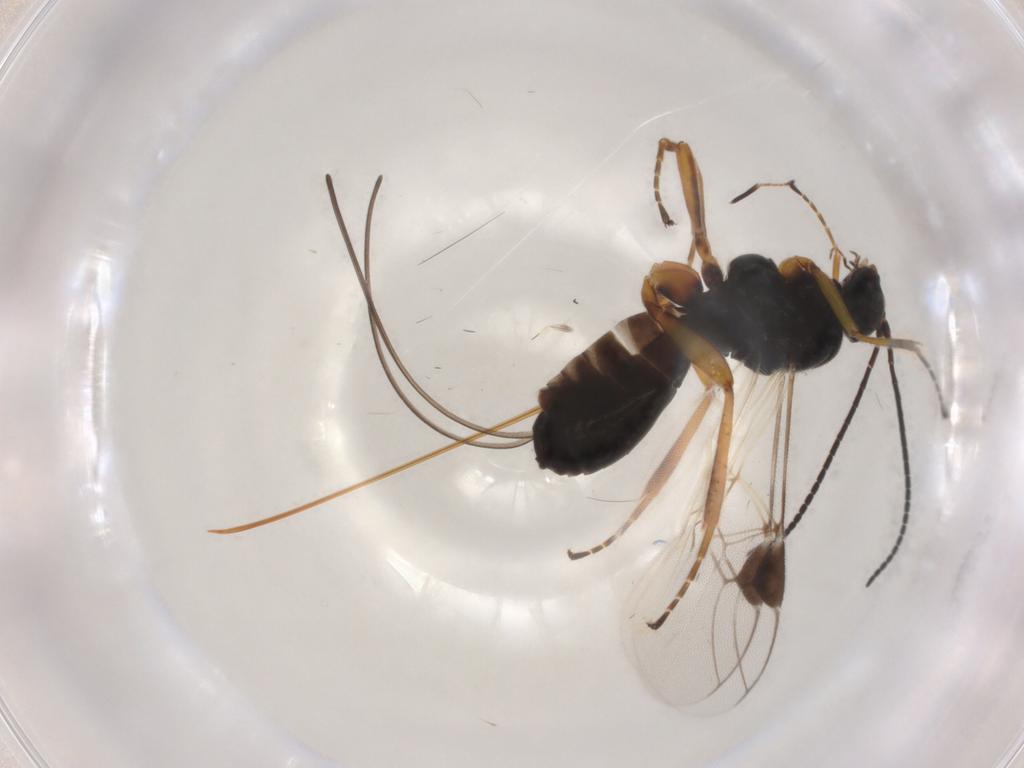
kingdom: Animalia
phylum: Arthropoda
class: Insecta
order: Hymenoptera
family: Braconidae
